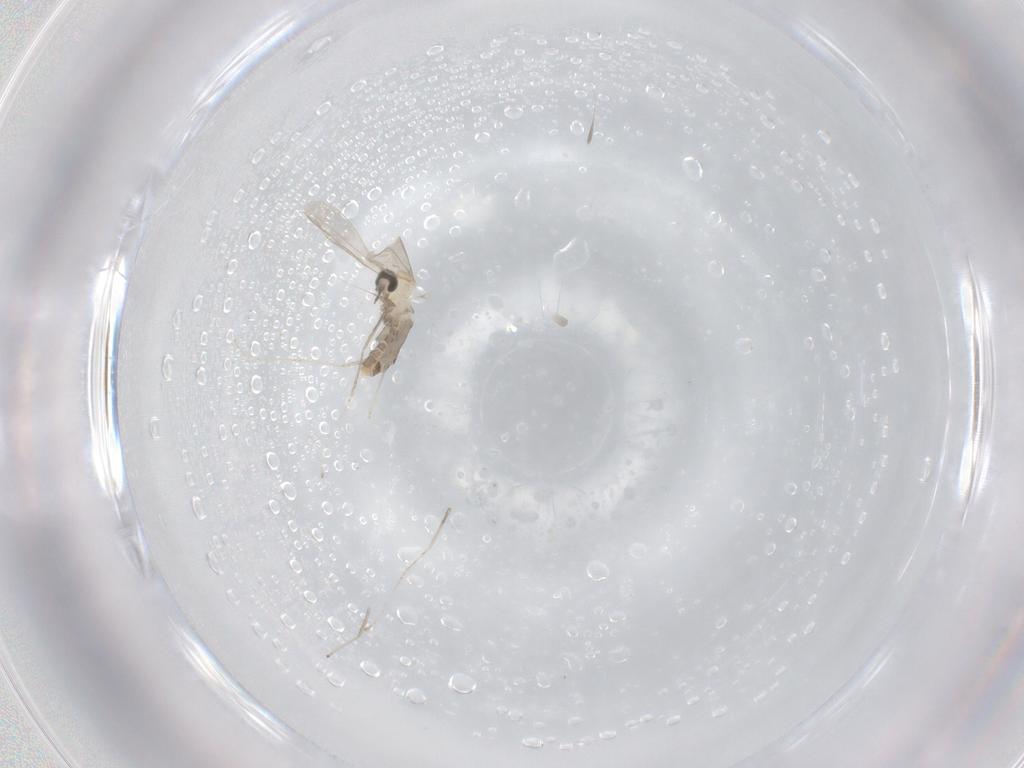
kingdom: Animalia
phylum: Arthropoda
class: Insecta
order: Diptera
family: Cecidomyiidae
